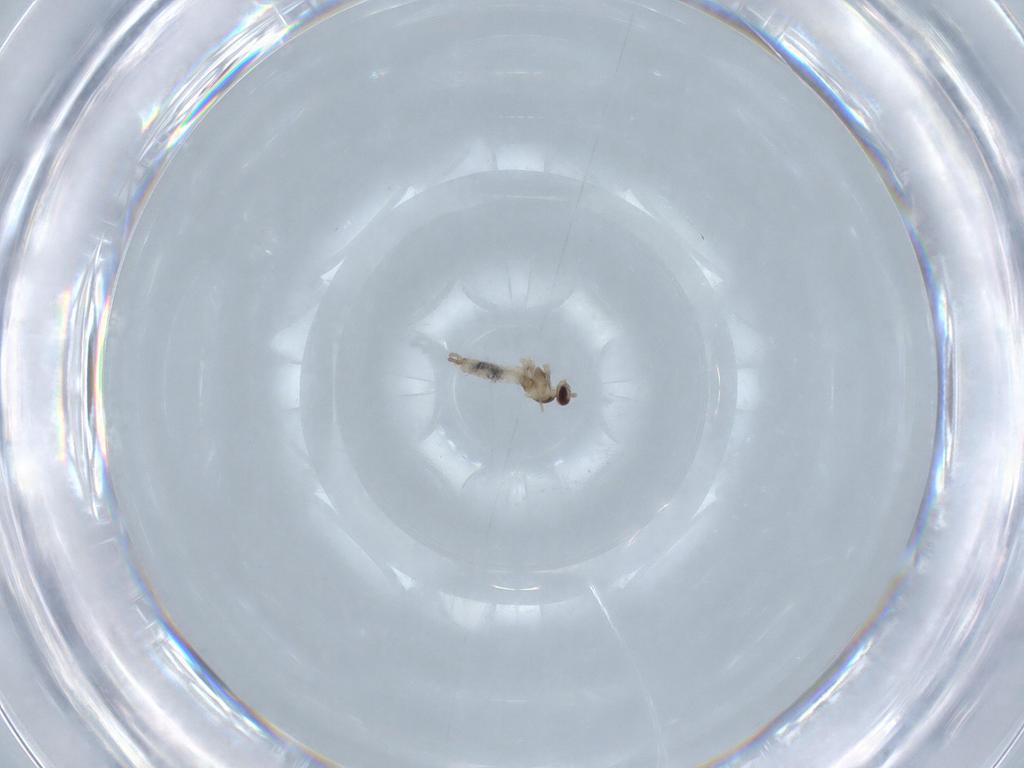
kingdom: Animalia
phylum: Arthropoda
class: Insecta
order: Diptera
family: Cecidomyiidae
